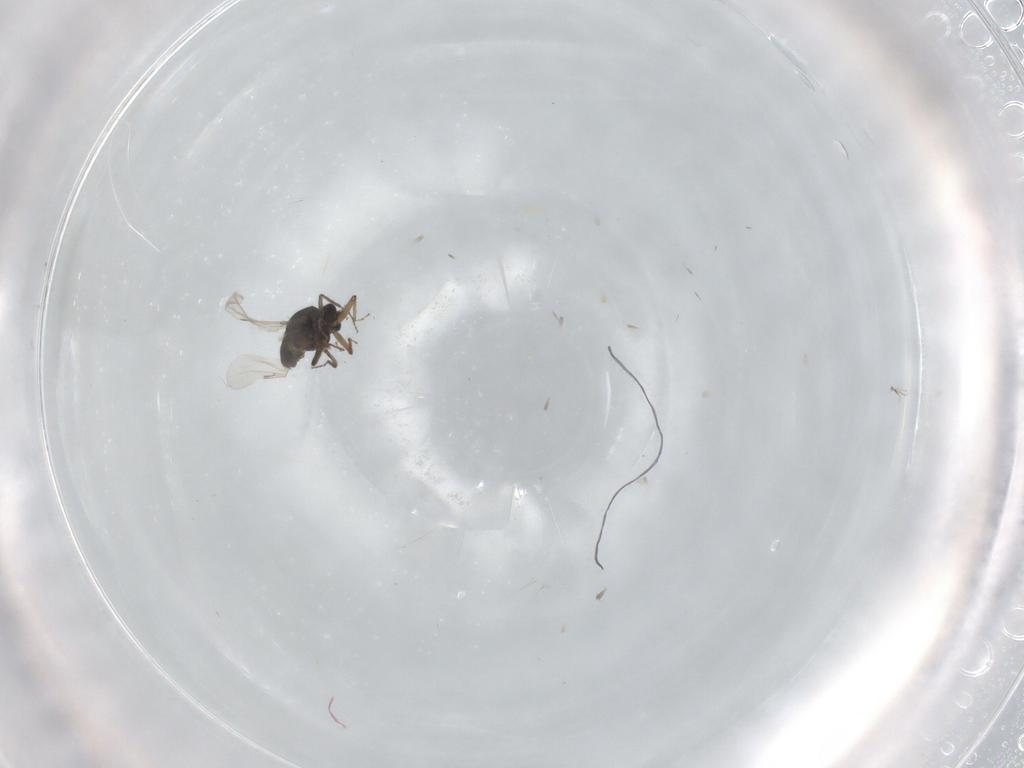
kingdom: Animalia
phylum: Arthropoda
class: Insecta
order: Diptera
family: Ceratopogonidae
